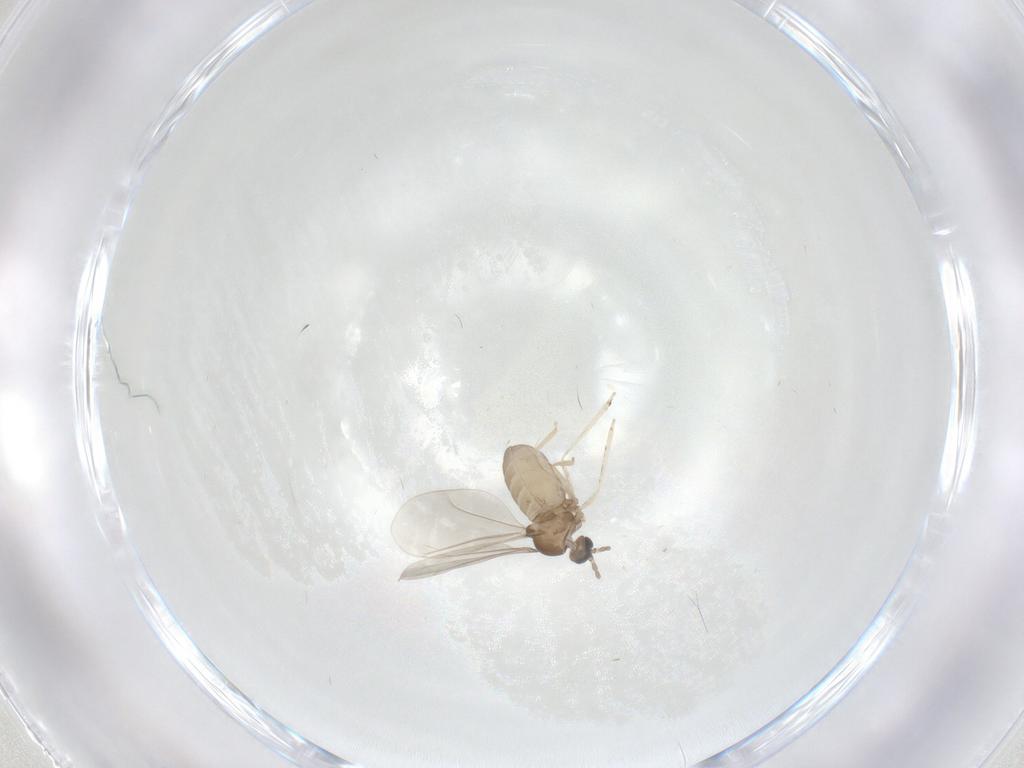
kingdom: Animalia
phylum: Arthropoda
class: Insecta
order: Diptera
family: Cecidomyiidae
